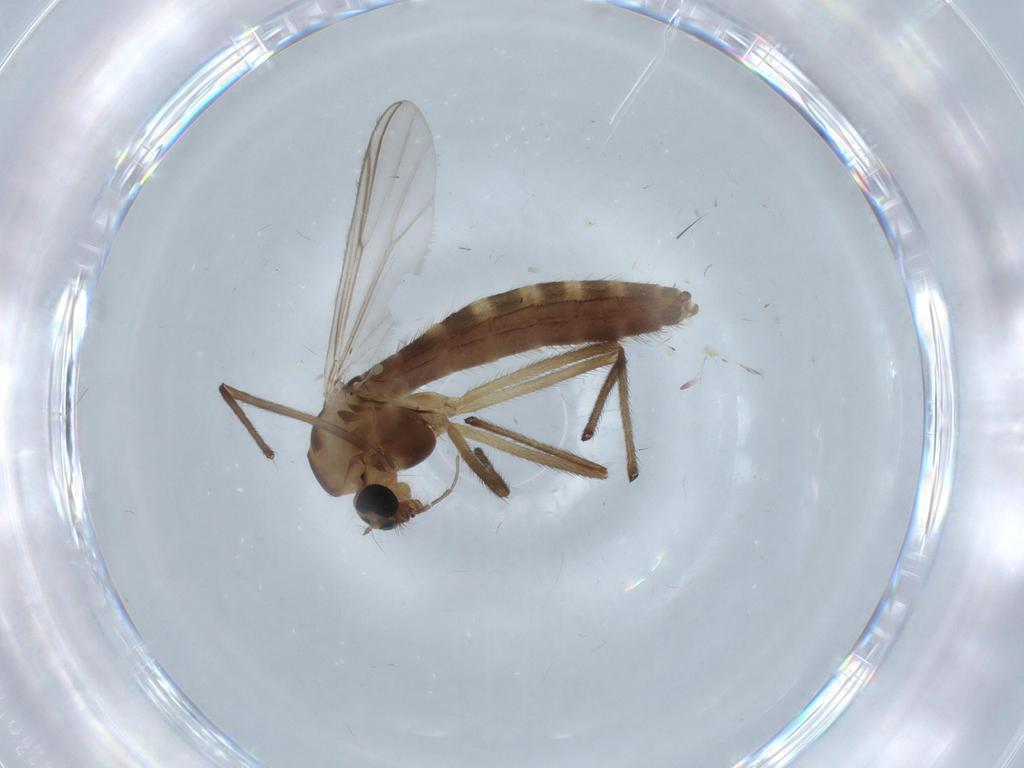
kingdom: Animalia
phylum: Arthropoda
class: Insecta
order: Diptera
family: Chironomidae
